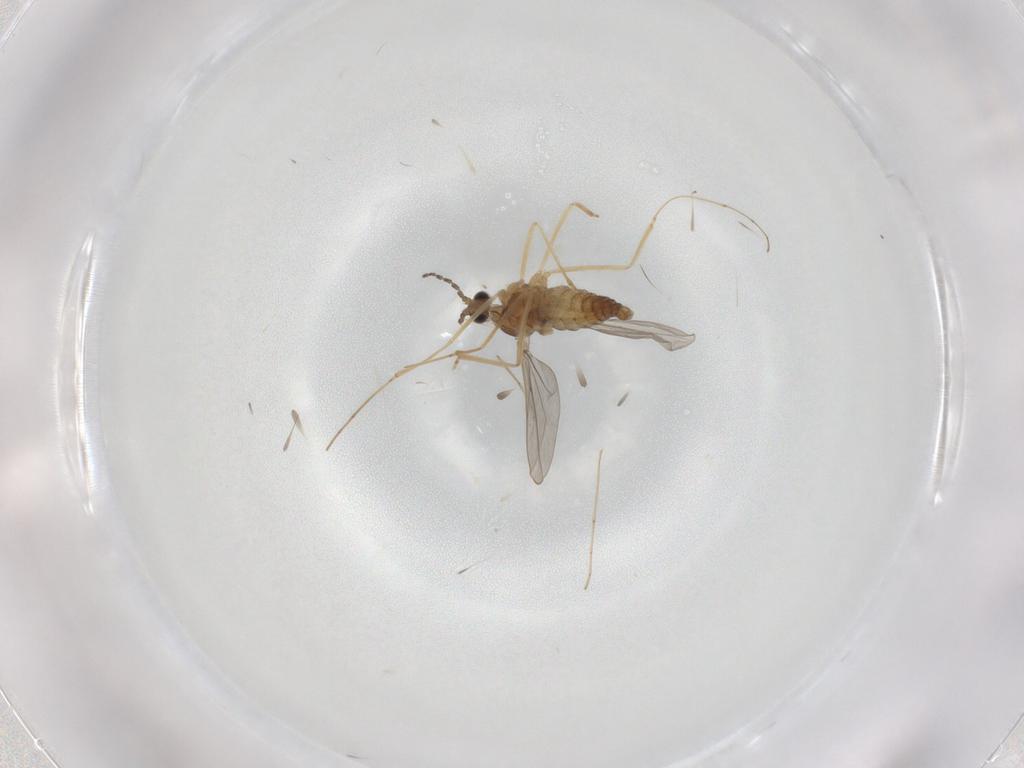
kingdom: Animalia
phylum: Arthropoda
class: Insecta
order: Diptera
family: Cecidomyiidae
